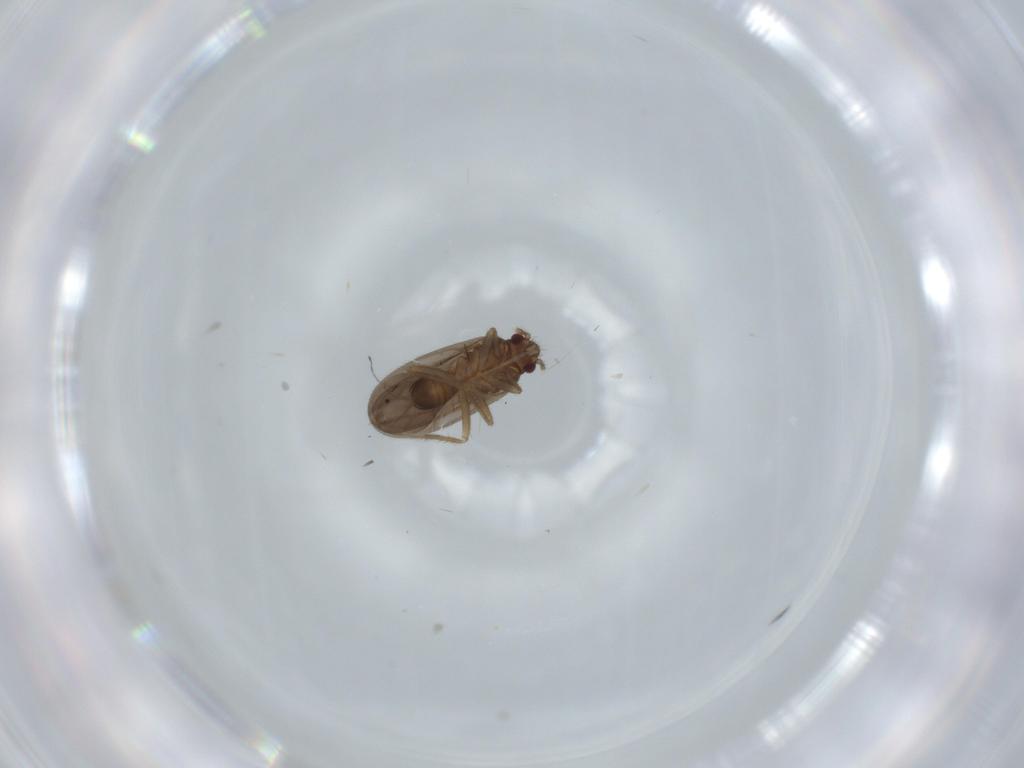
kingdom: Animalia
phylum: Arthropoda
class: Insecta
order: Hemiptera
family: Ceratocombidae
